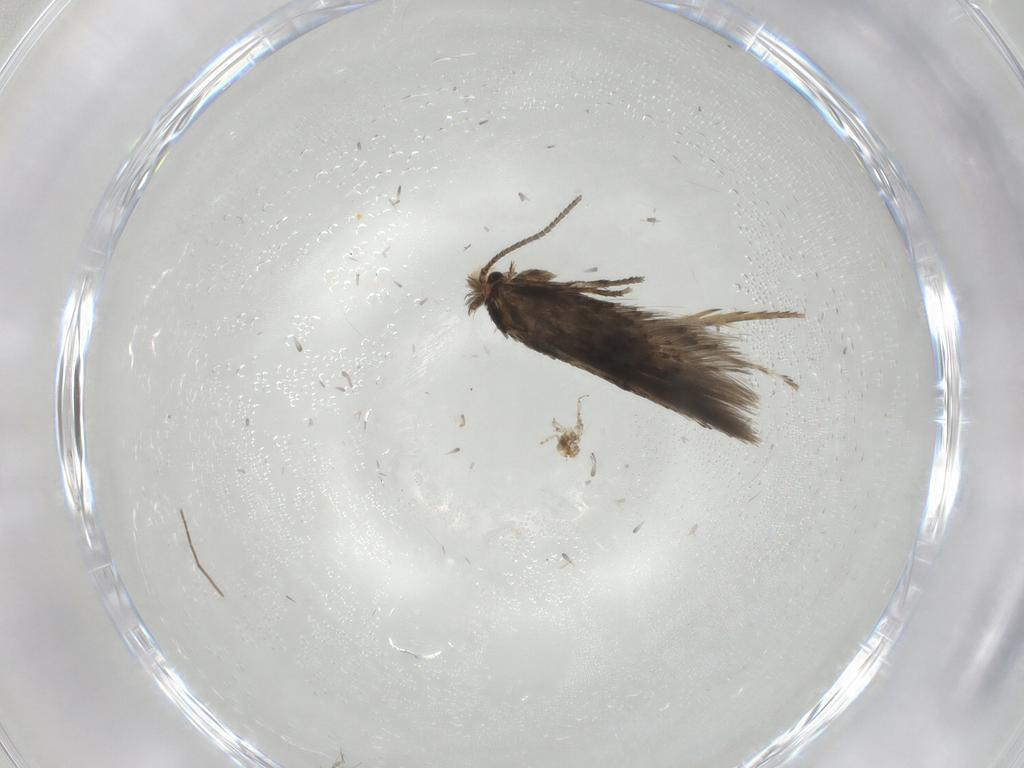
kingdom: Animalia
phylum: Arthropoda
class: Insecta
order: Lepidoptera
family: Nepticulidae
